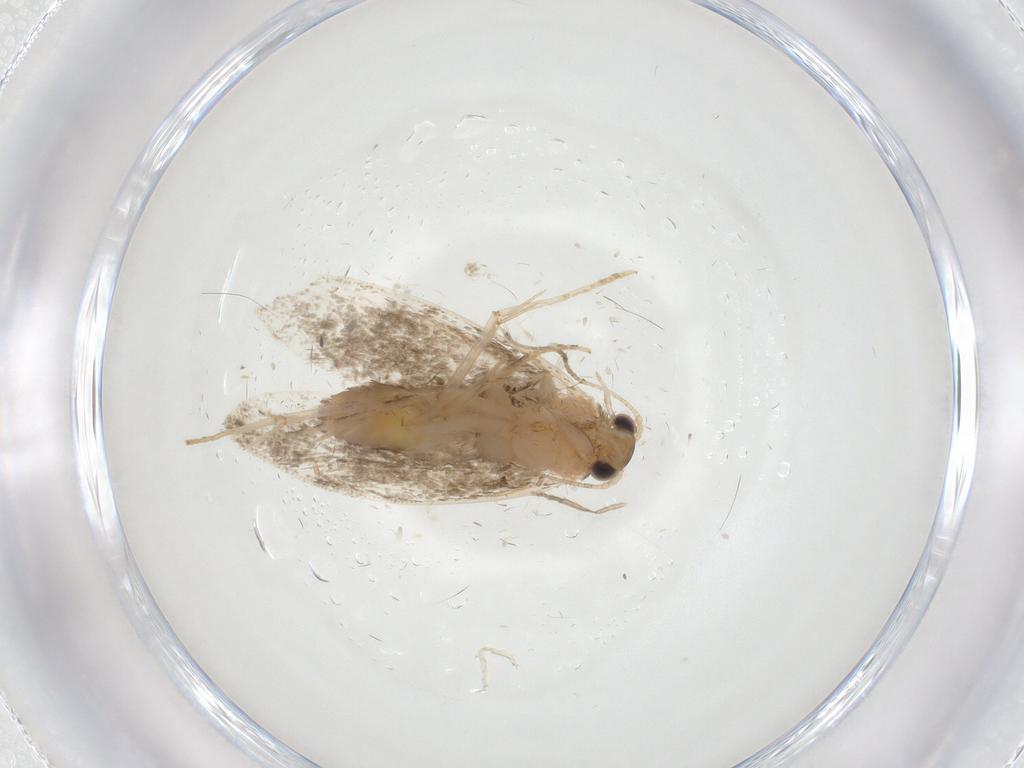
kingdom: Animalia
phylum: Arthropoda
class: Insecta
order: Lepidoptera
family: Tineidae
